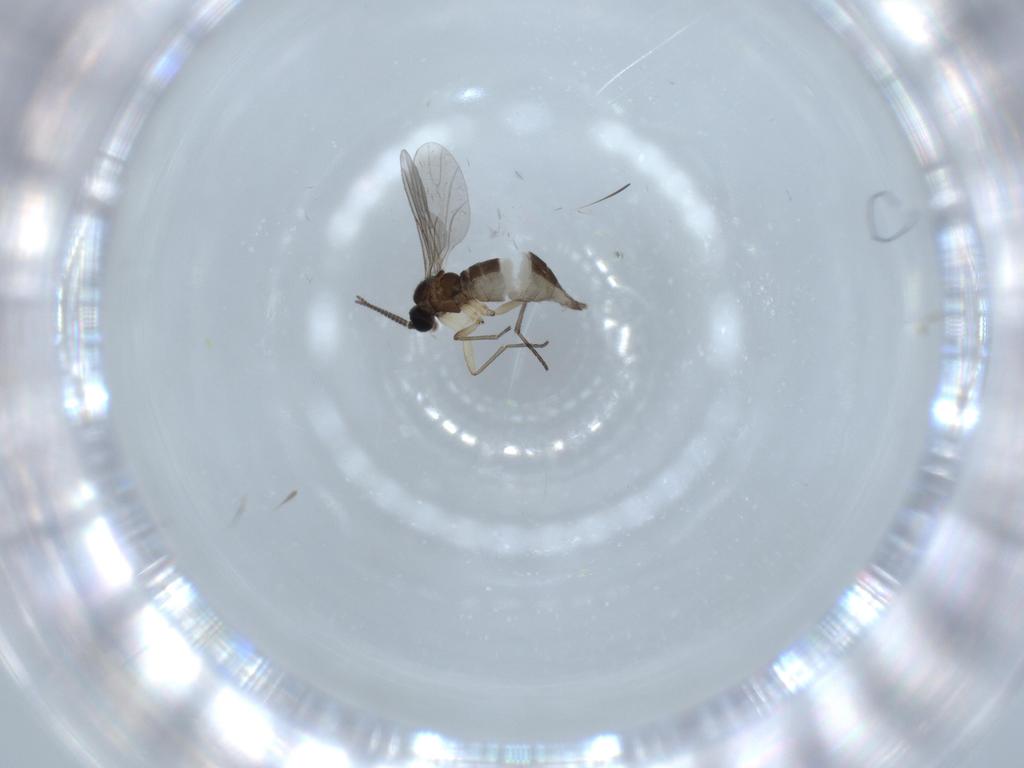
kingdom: Animalia
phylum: Arthropoda
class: Insecta
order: Diptera
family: Sciaridae
